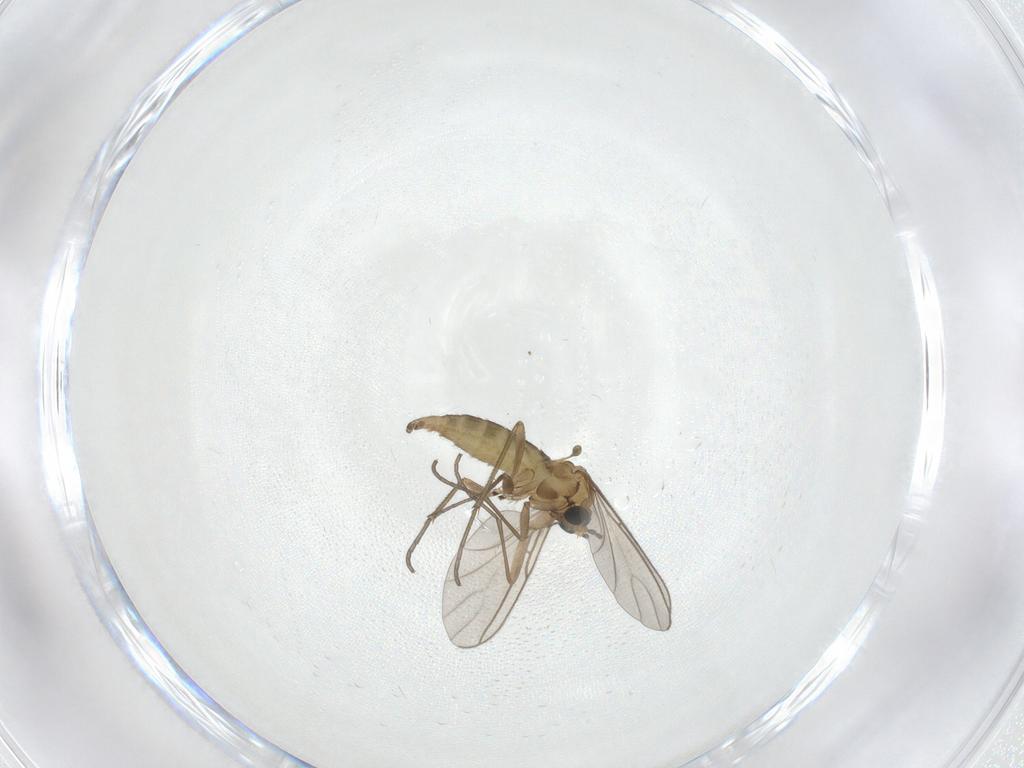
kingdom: Animalia
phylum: Arthropoda
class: Insecta
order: Diptera
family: Sciaridae
